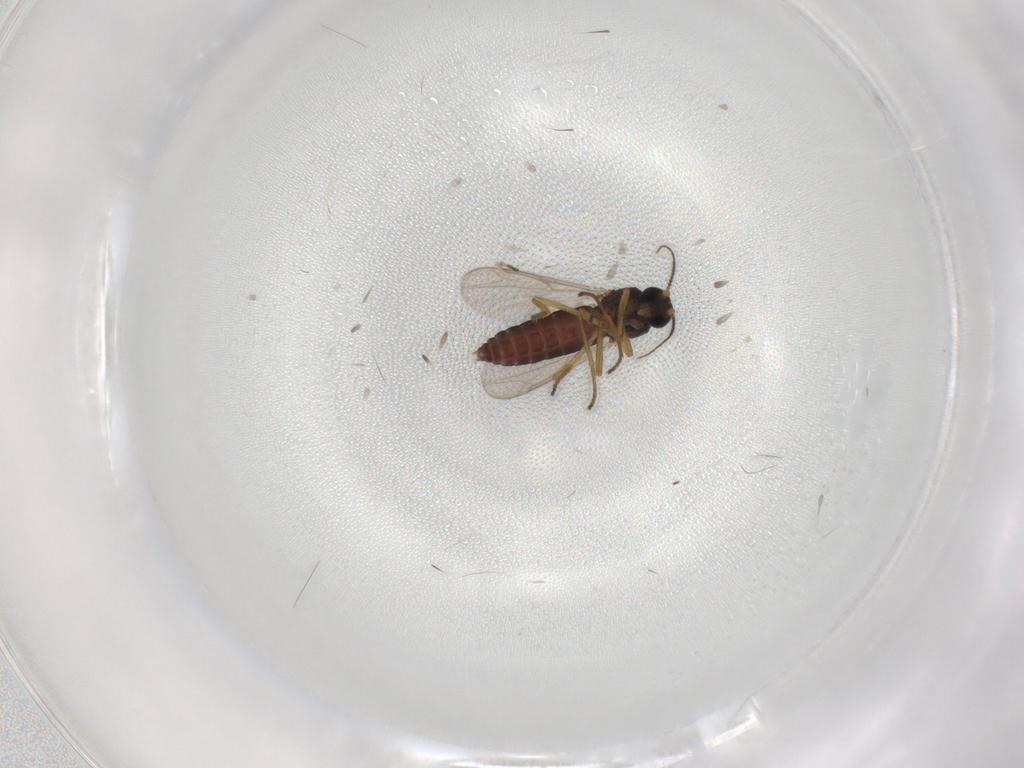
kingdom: Animalia
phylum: Arthropoda
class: Insecta
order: Diptera
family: Ceratopogonidae
